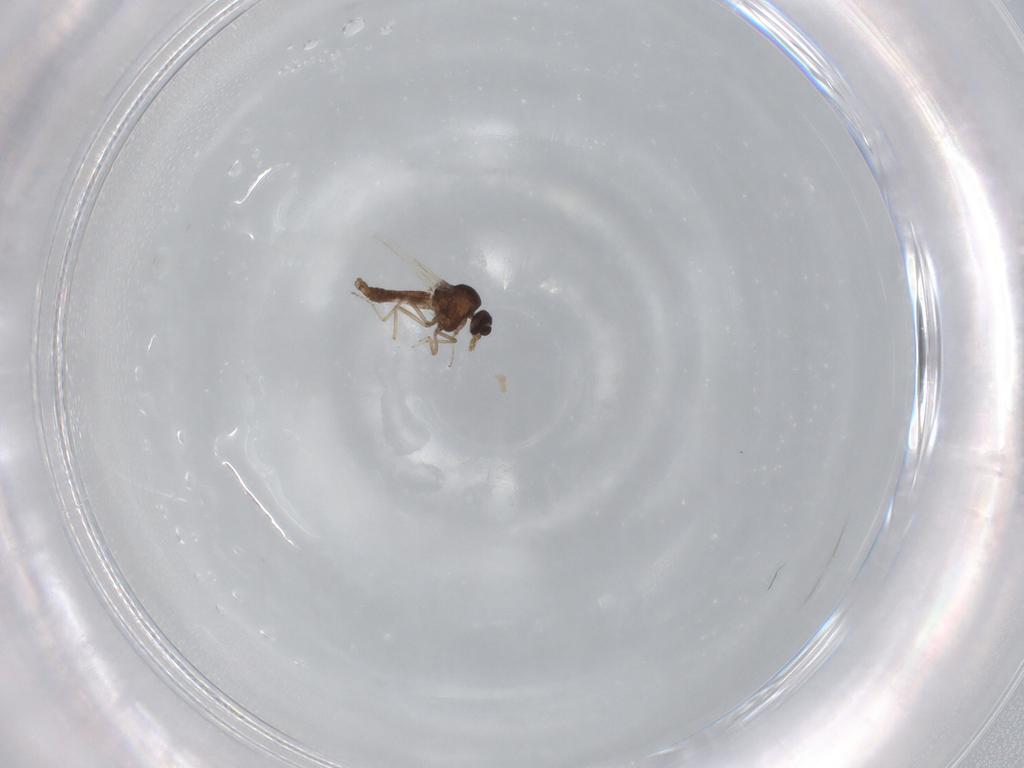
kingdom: Animalia
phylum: Arthropoda
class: Insecta
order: Diptera
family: Ceratopogonidae
